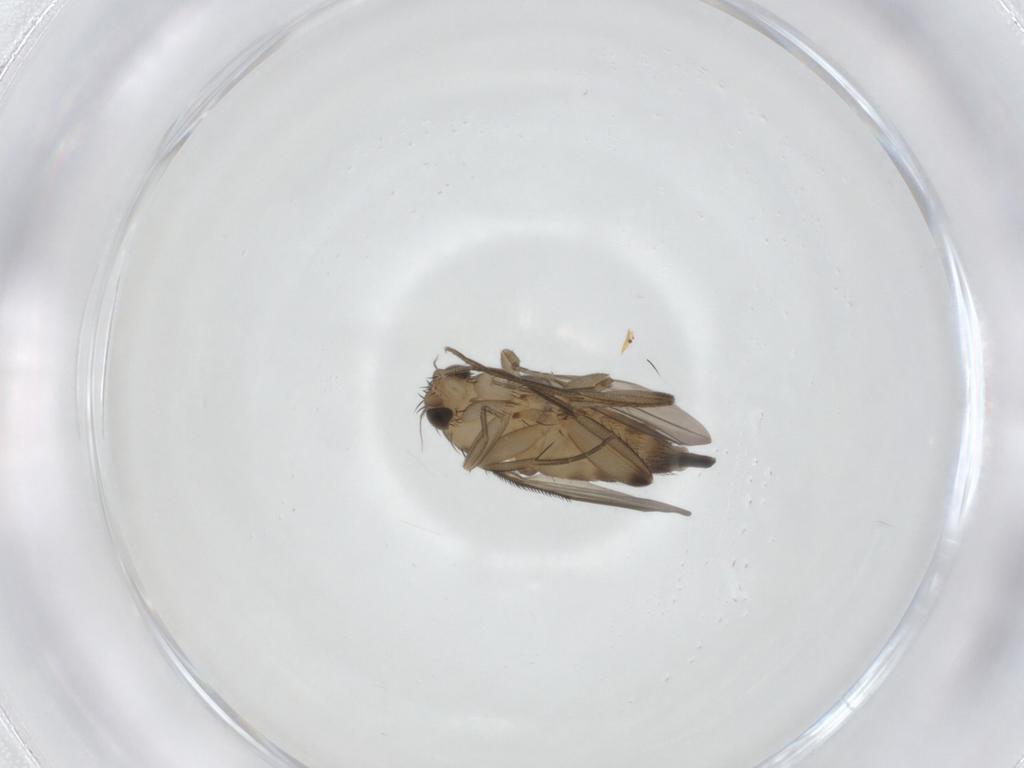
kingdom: Animalia
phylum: Arthropoda
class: Insecta
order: Diptera
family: Phoridae
